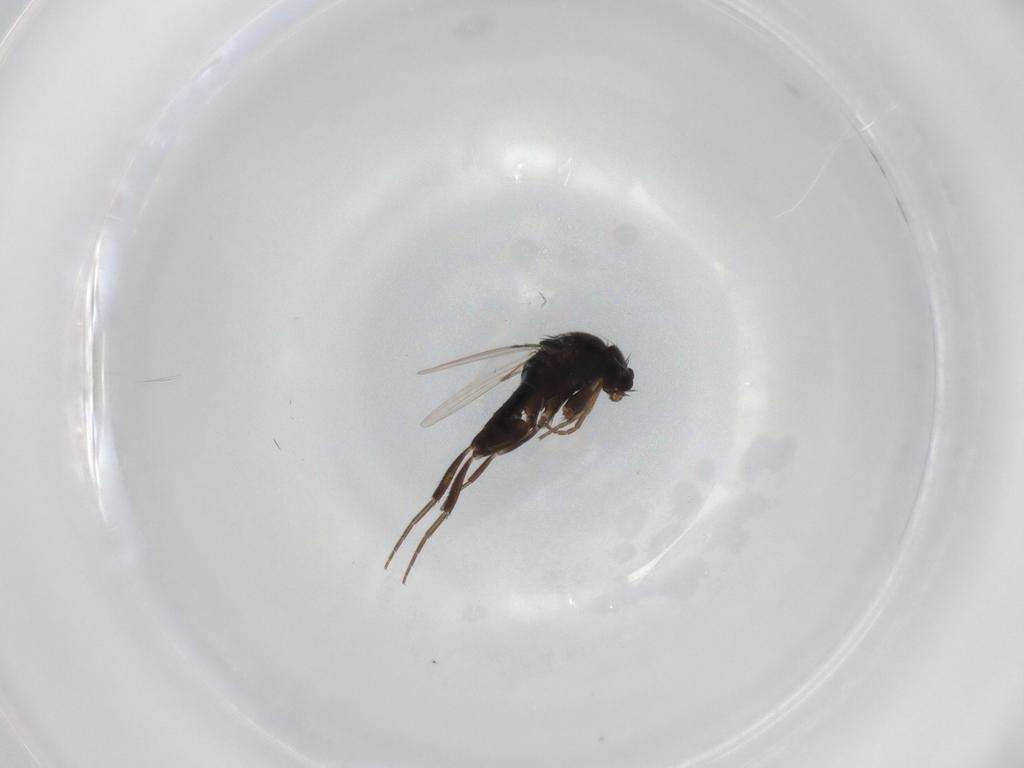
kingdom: Animalia
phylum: Arthropoda
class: Insecta
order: Diptera
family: Phoridae
